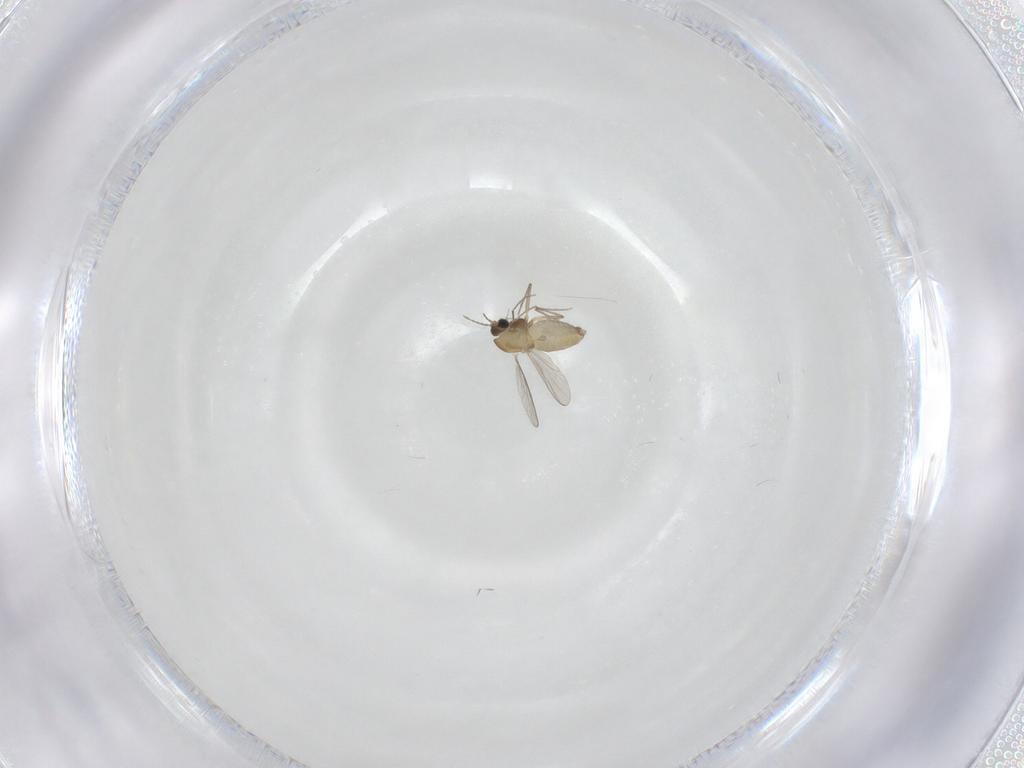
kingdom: Animalia
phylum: Arthropoda
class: Insecta
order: Diptera
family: Chironomidae
